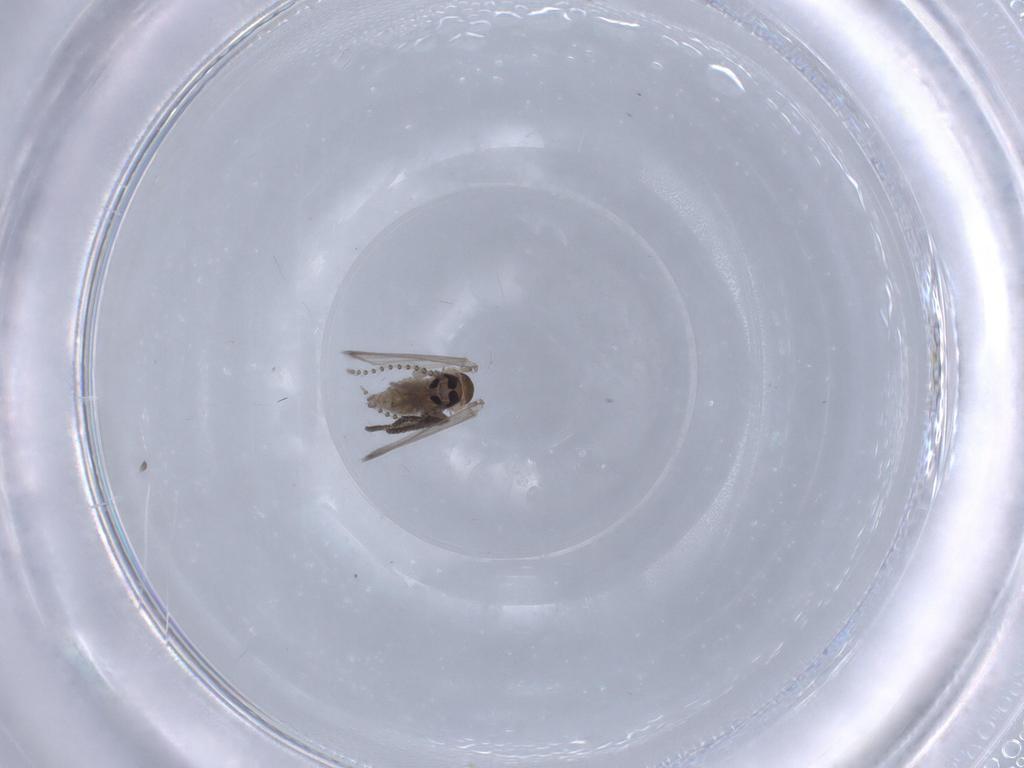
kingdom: Animalia
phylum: Arthropoda
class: Insecta
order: Diptera
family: Psychodidae
